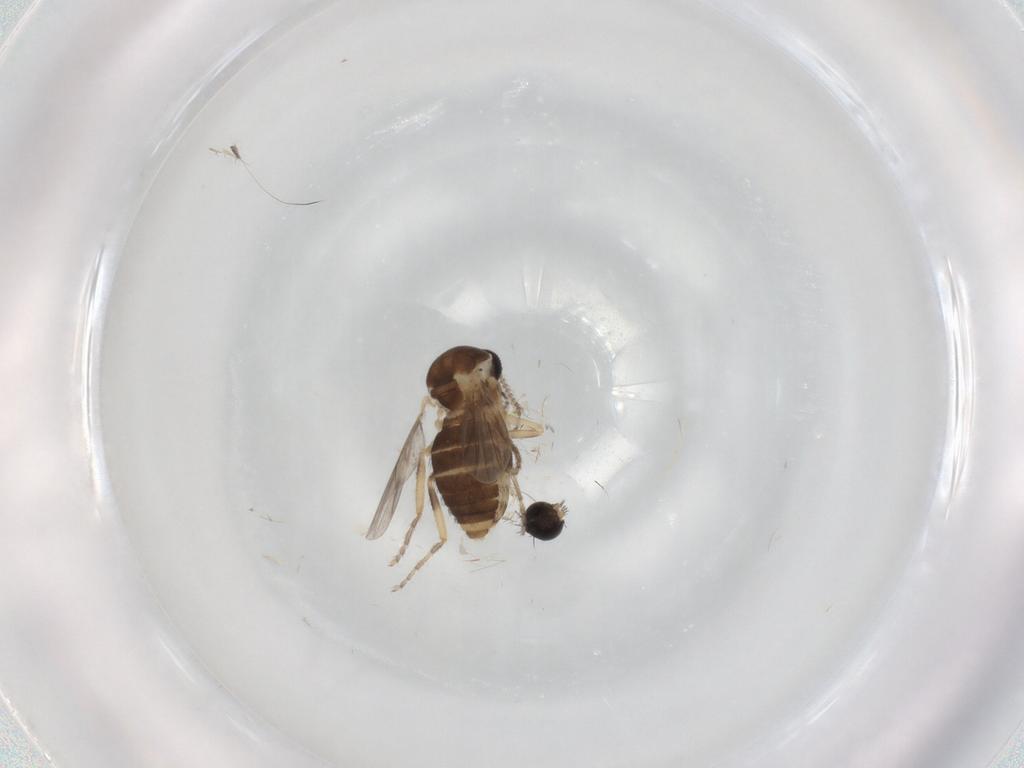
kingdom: Animalia
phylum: Arthropoda
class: Insecta
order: Diptera
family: Ceratopogonidae
